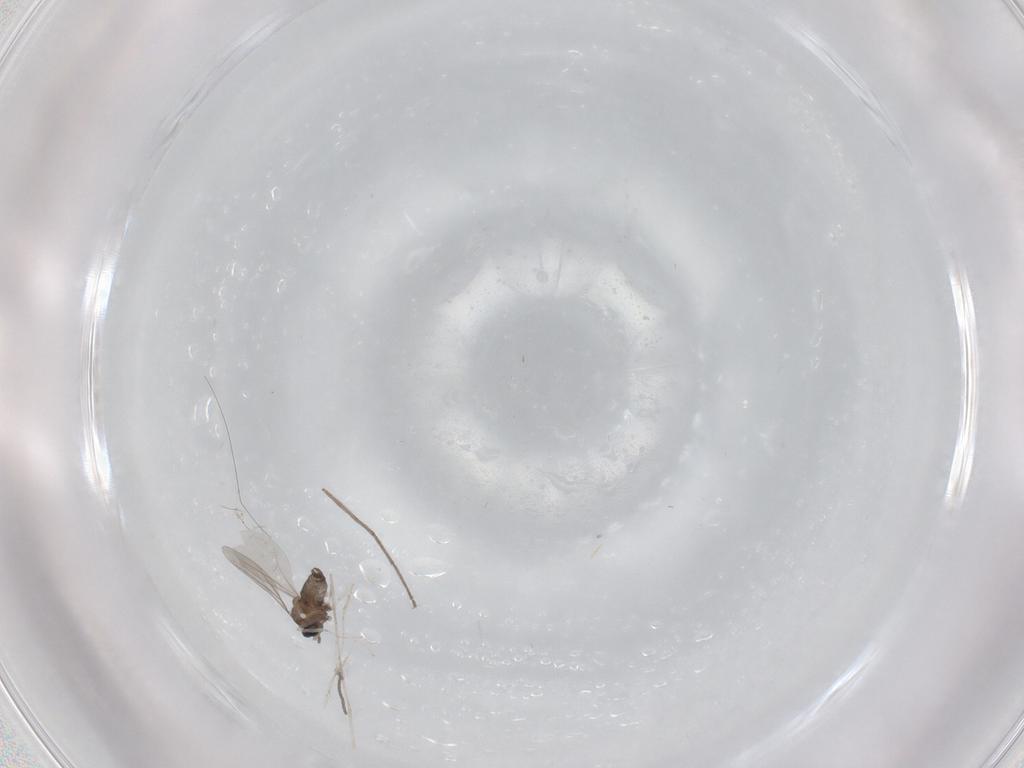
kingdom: Animalia
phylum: Arthropoda
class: Insecta
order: Diptera
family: Cecidomyiidae
